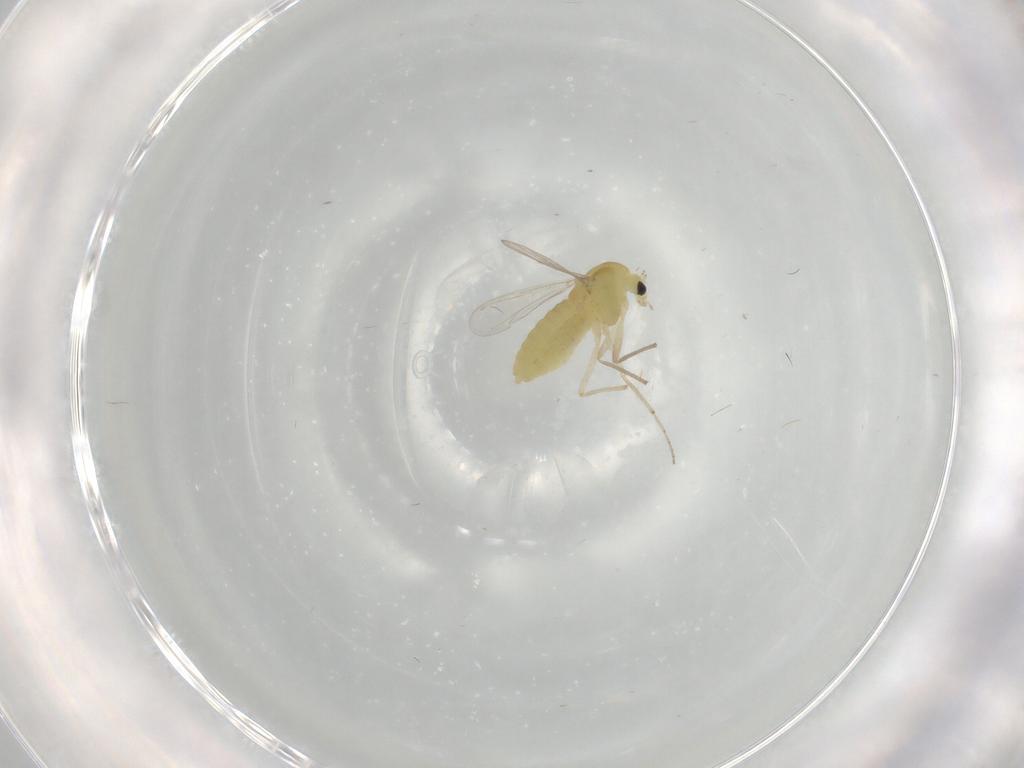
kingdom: Animalia
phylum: Arthropoda
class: Insecta
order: Diptera
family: Chironomidae
